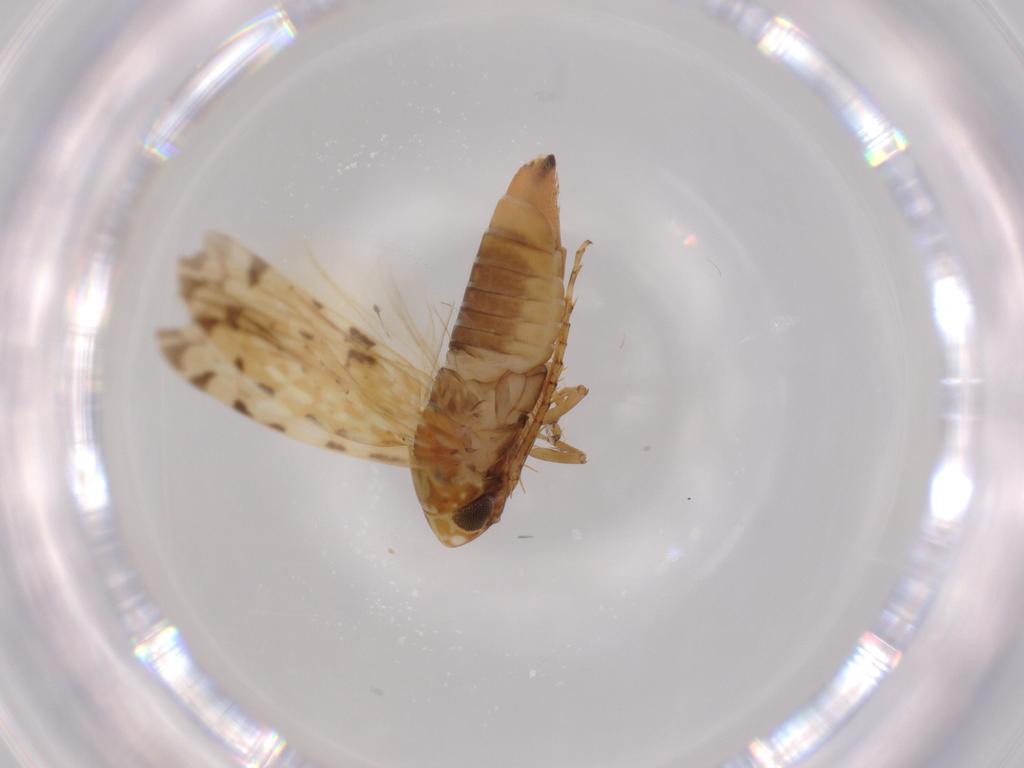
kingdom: Animalia
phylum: Arthropoda
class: Insecta
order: Hemiptera
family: Cicadellidae
